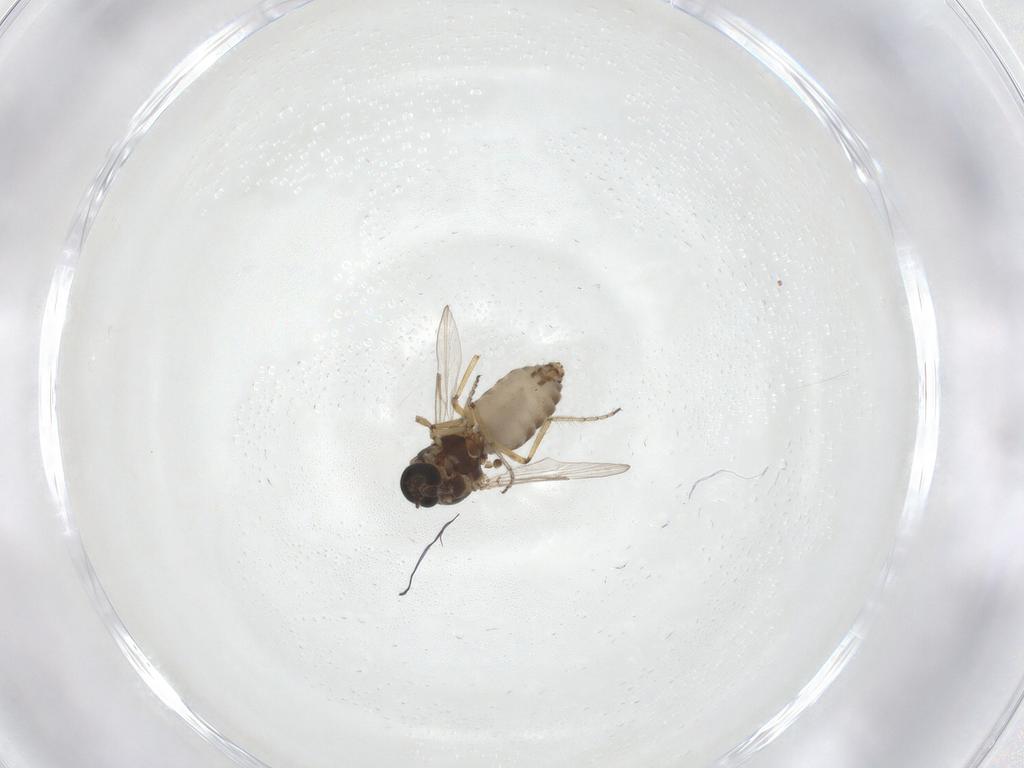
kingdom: Animalia
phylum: Arthropoda
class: Insecta
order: Diptera
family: Ceratopogonidae
